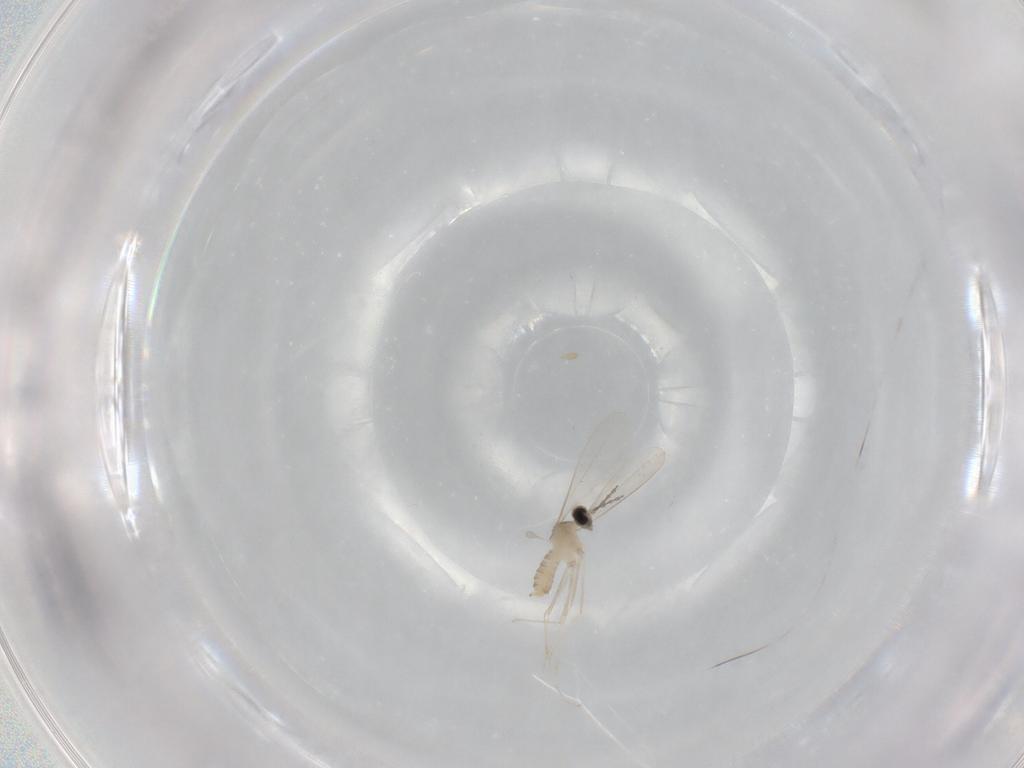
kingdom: Animalia
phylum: Arthropoda
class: Insecta
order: Diptera
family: Cecidomyiidae
